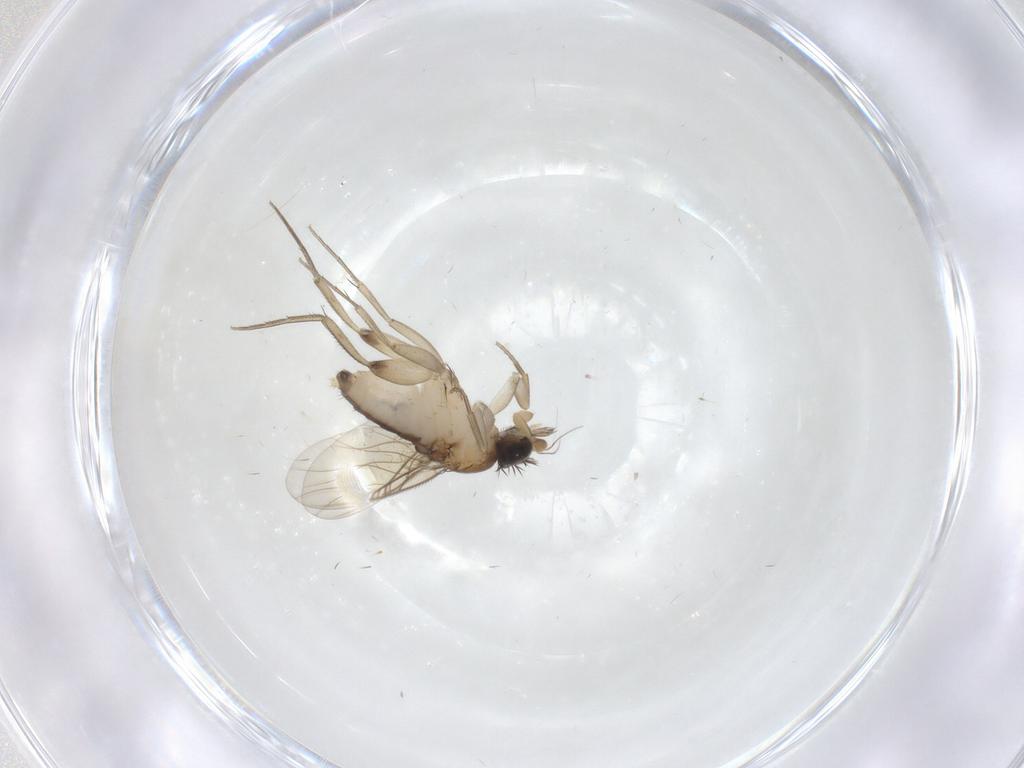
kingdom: Animalia
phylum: Arthropoda
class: Insecta
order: Diptera
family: Phoridae
